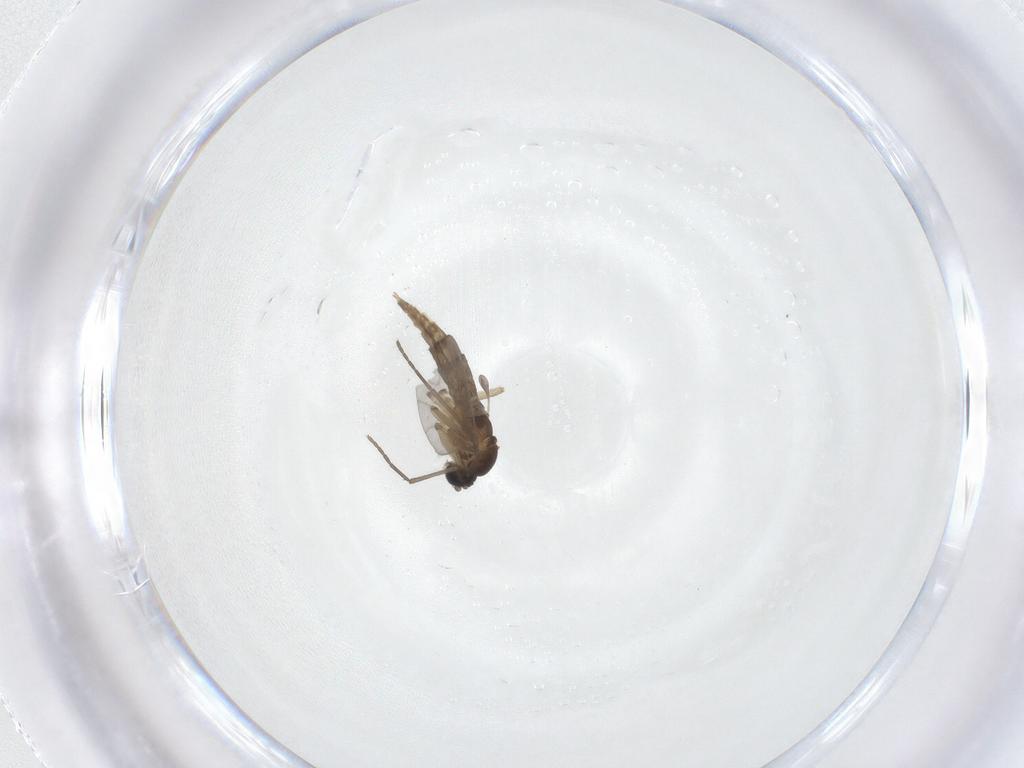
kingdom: Animalia
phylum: Arthropoda
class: Insecta
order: Diptera
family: Sciaridae
